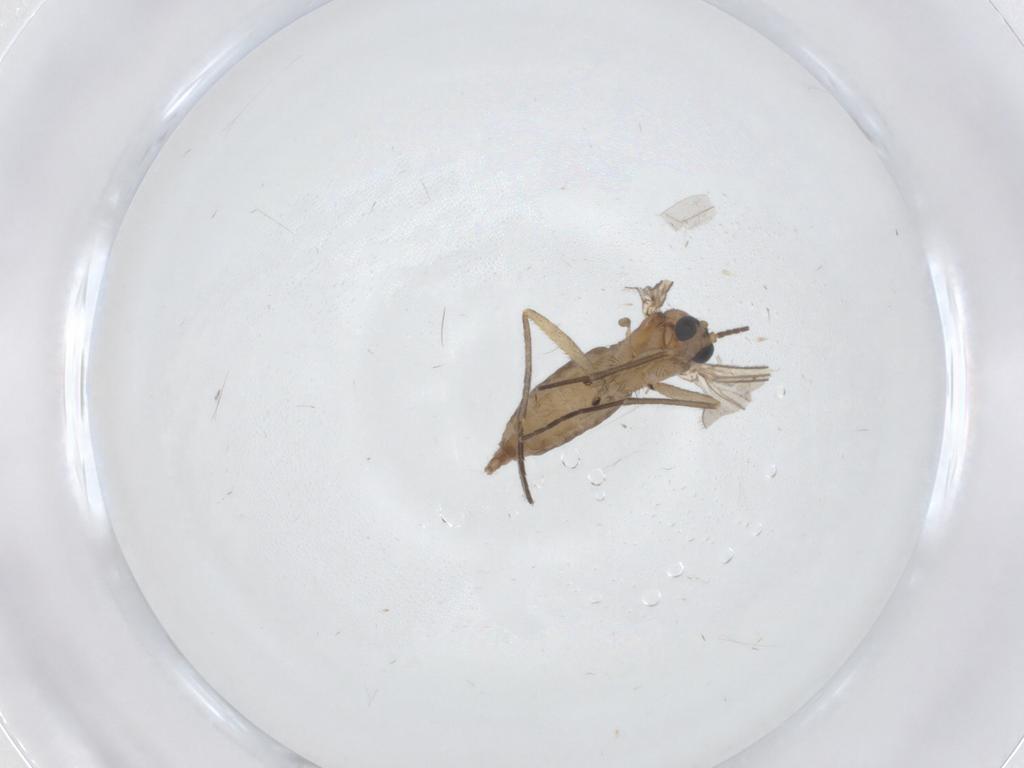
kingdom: Animalia
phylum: Arthropoda
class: Insecta
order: Diptera
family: Sciaridae
